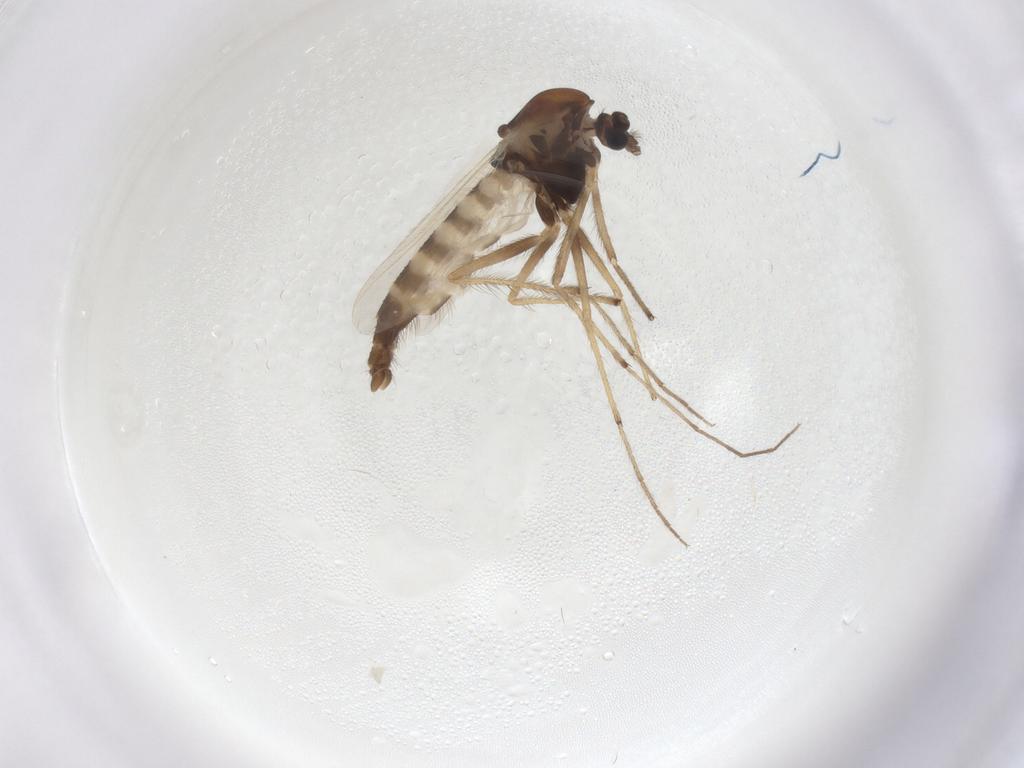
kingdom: Animalia
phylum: Arthropoda
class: Insecta
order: Diptera
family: Chironomidae
